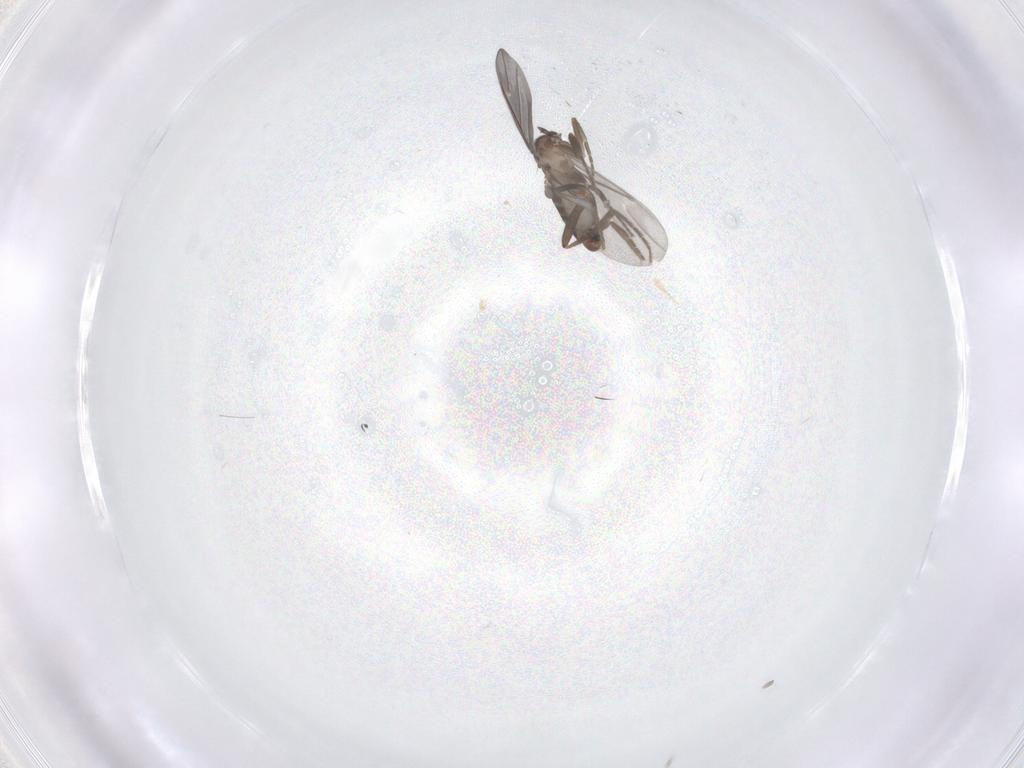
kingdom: Animalia
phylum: Arthropoda
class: Insecta
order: Diptera
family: Phoridae
